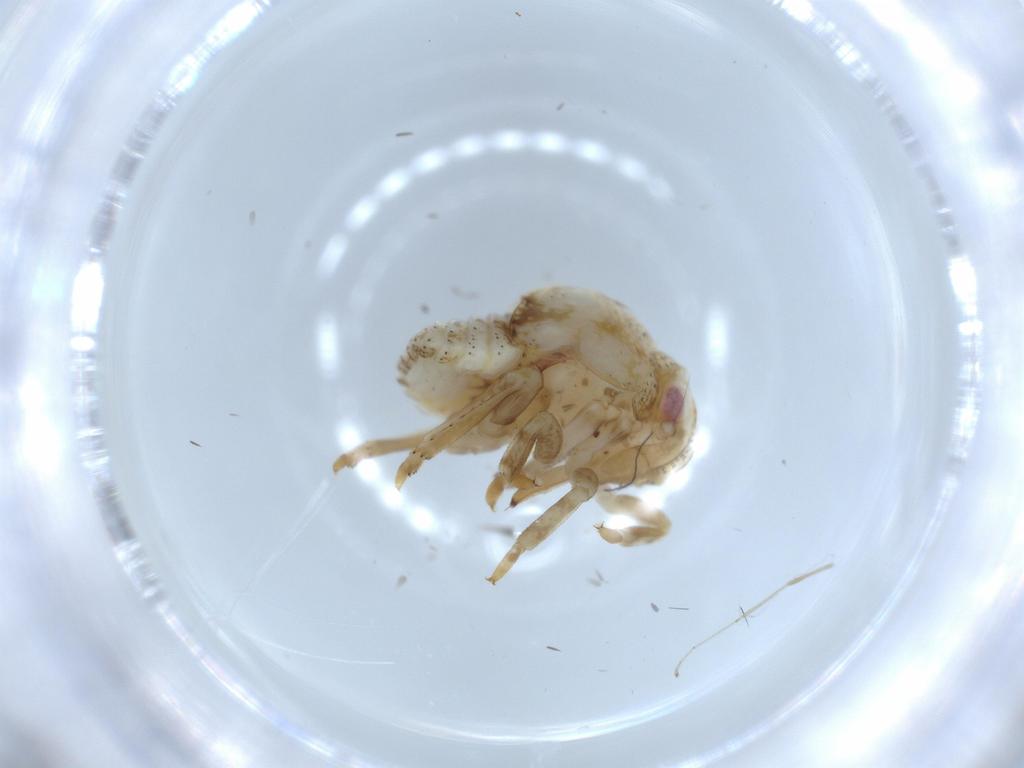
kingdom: Animalia
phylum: Arthropoda
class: Insecta
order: Hemiptera
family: Acanaloniidae
